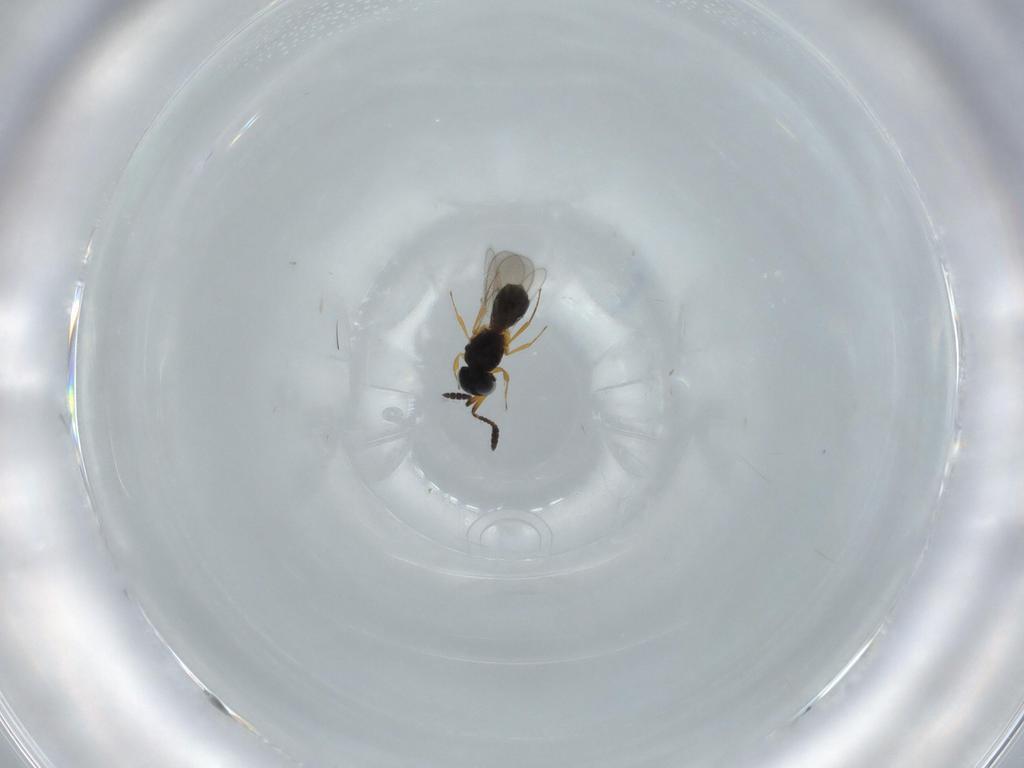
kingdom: Animalia
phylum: Arthropoda
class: Insecta
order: Hymenoptera
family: Scelionidae
